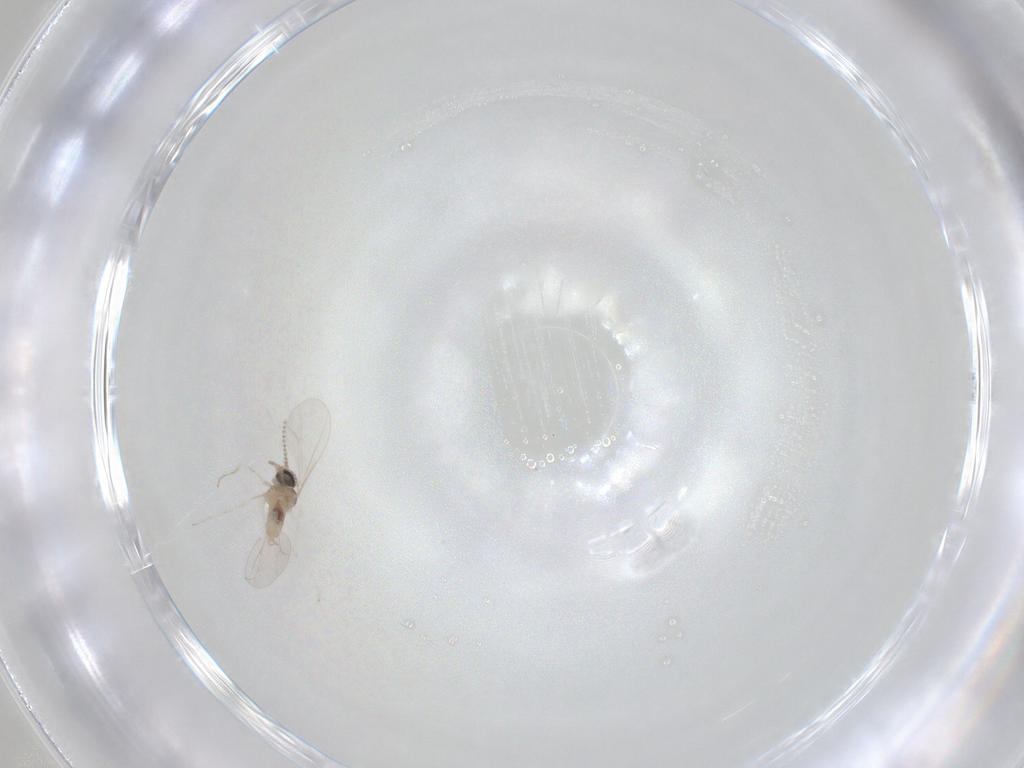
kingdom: Animalia
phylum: Arthropoda
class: Insecta
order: Diptera
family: Cecidomyiidae
